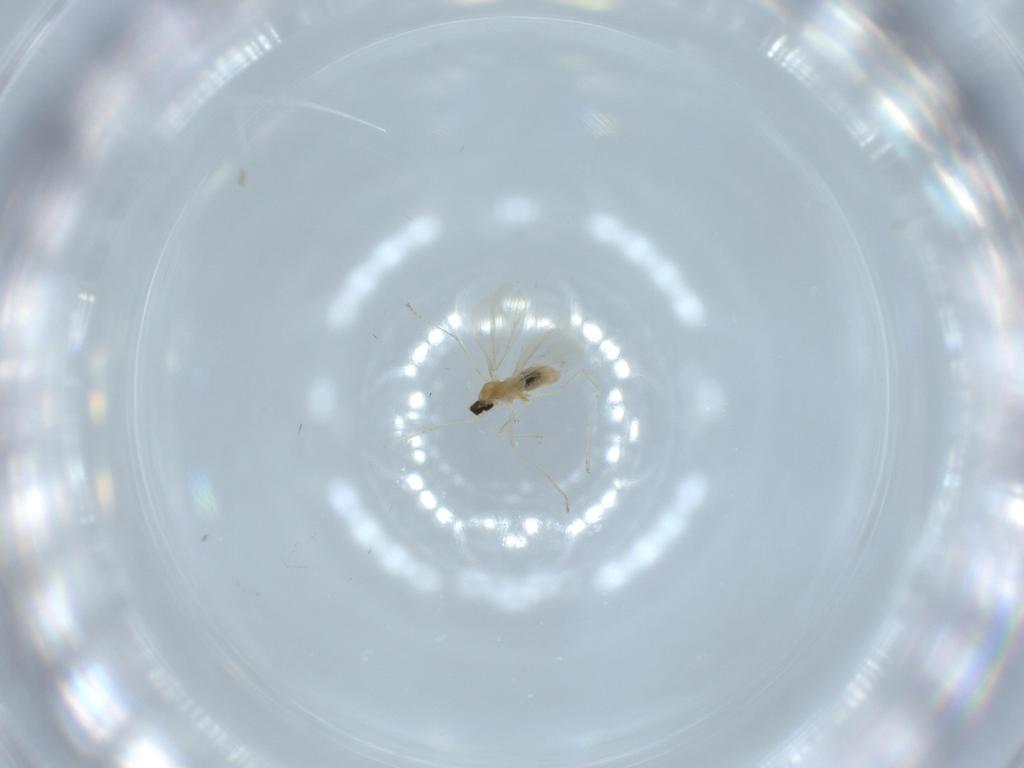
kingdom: Animalia
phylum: Arthropoda
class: Insecta
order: Diptera
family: Cecidomyiidae
